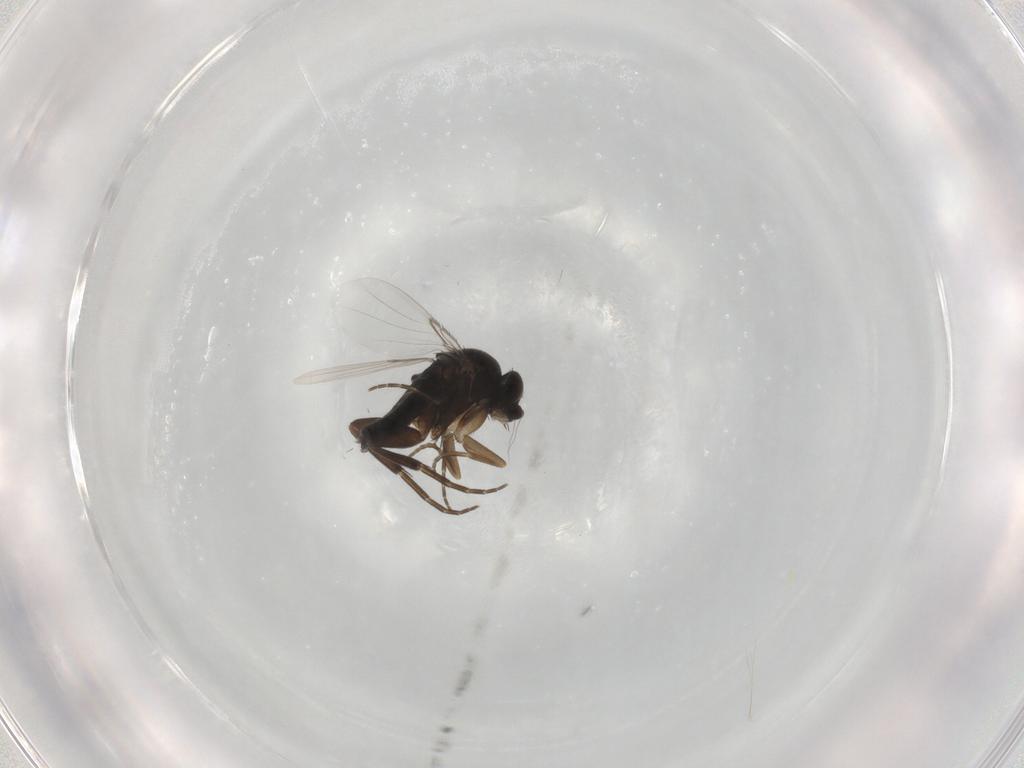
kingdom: Animalia
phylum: Arthropoda
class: Insecta
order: Diptera
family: Phoridae
